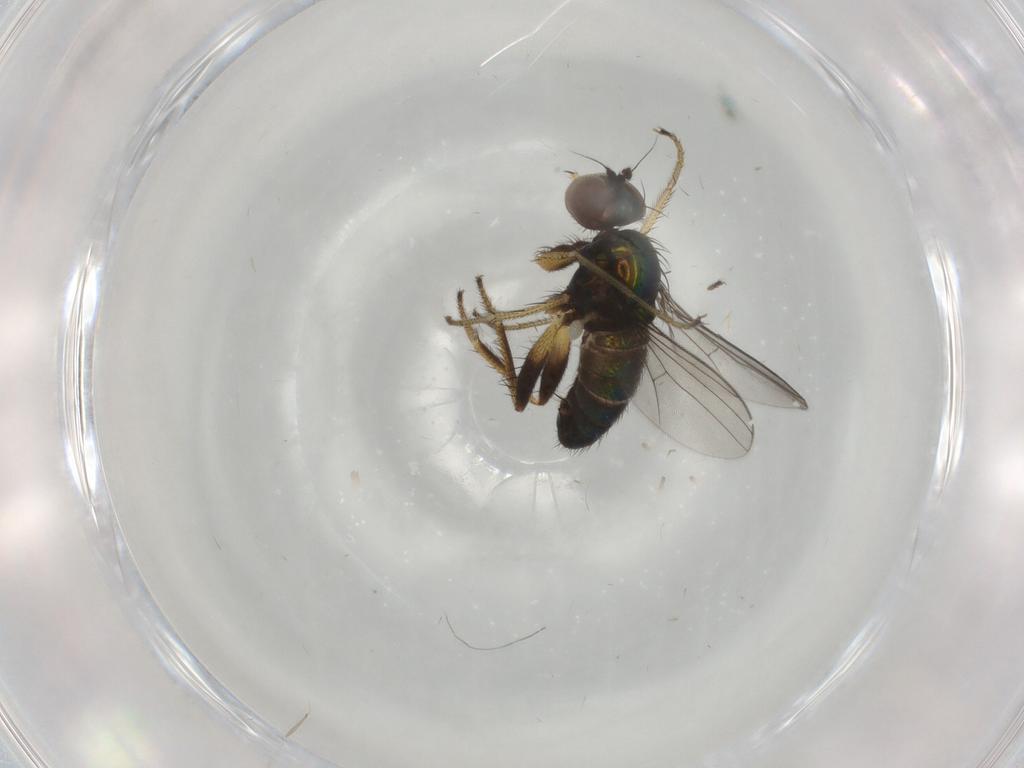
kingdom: Animalia
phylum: Arthropoda
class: Insecta
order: Diptera
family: Dolichopodidae
